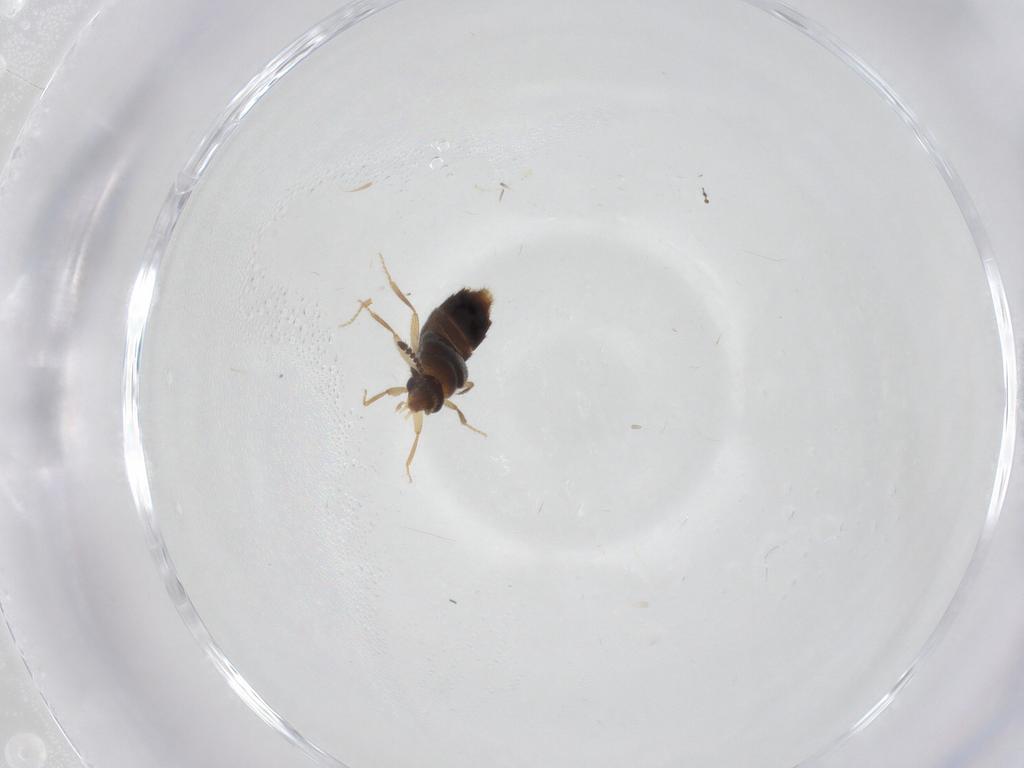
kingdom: Animalia
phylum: Arthropoda
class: Insecta
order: Coleoptera
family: Staphylinidae
